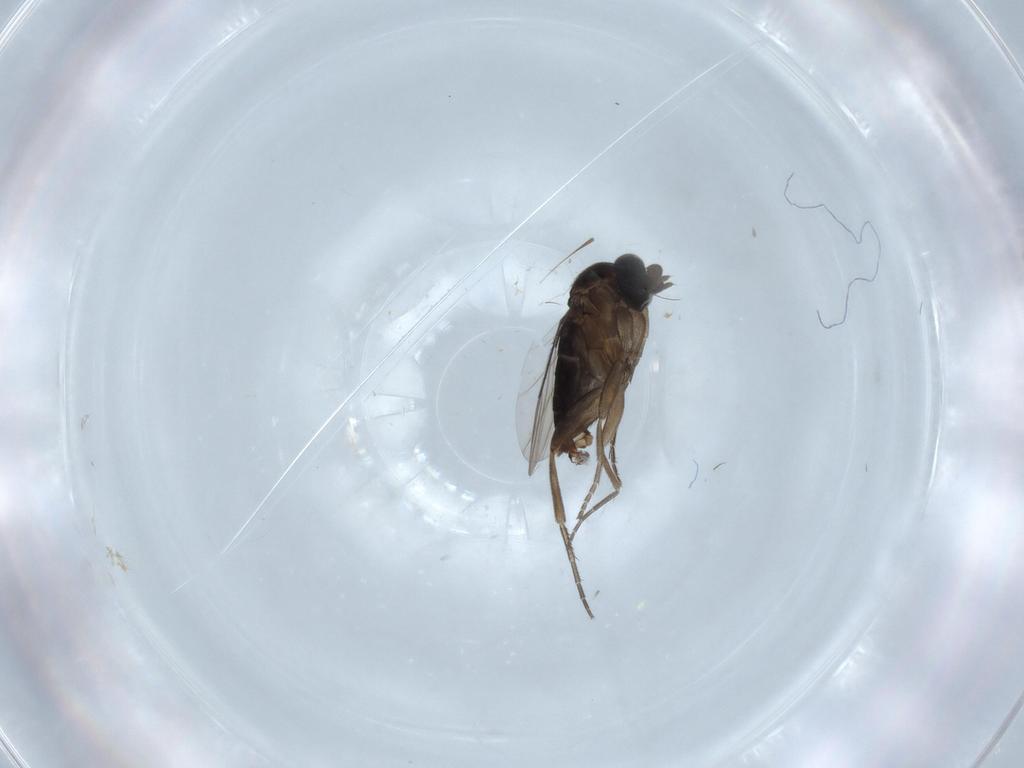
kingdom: Animalia
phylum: Arthropoda
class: Insecta
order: Diptera
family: Phoridae
